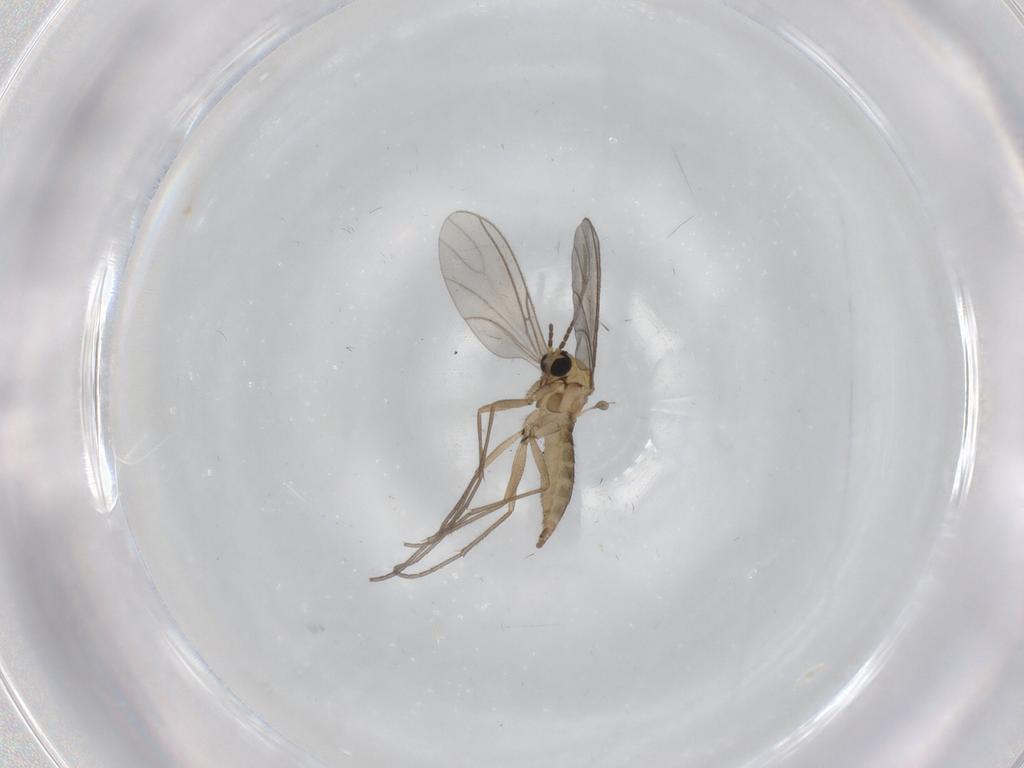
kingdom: Animalia
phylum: Arthropoda
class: Insecta
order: Diptera
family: Sciaridae
